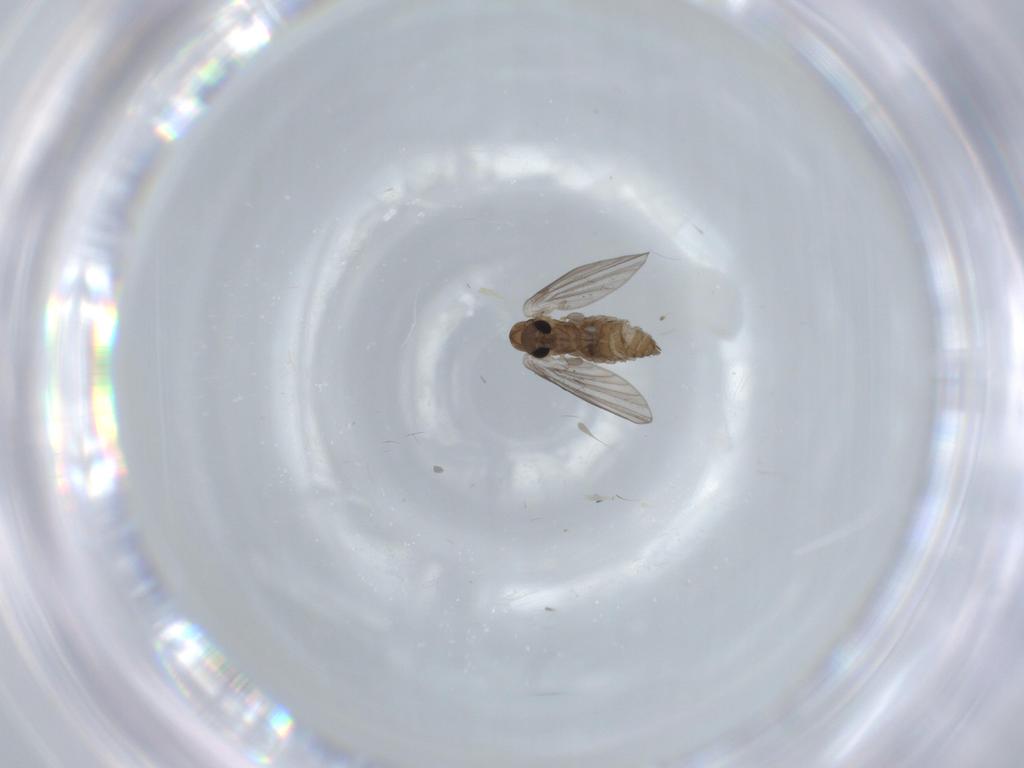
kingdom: Animalia
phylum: Arthropoda
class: Insecta
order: Diptera
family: Psychodidae
